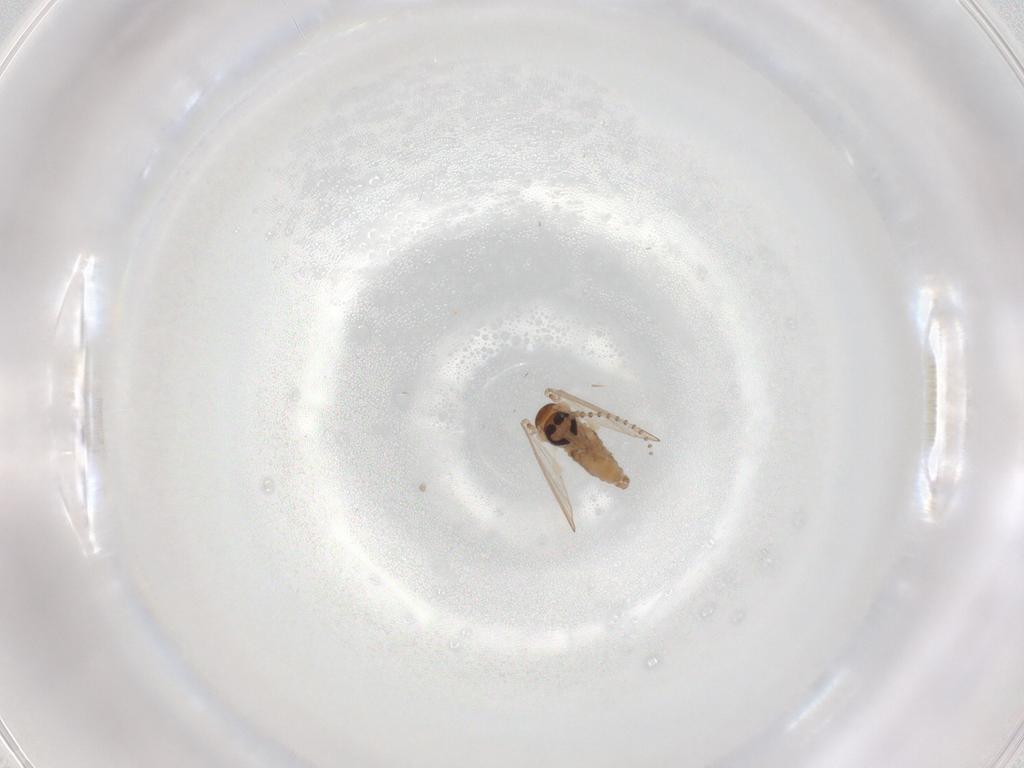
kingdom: Animalia
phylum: Arthropoda
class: Insecta
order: Diptera
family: Psychodidae
